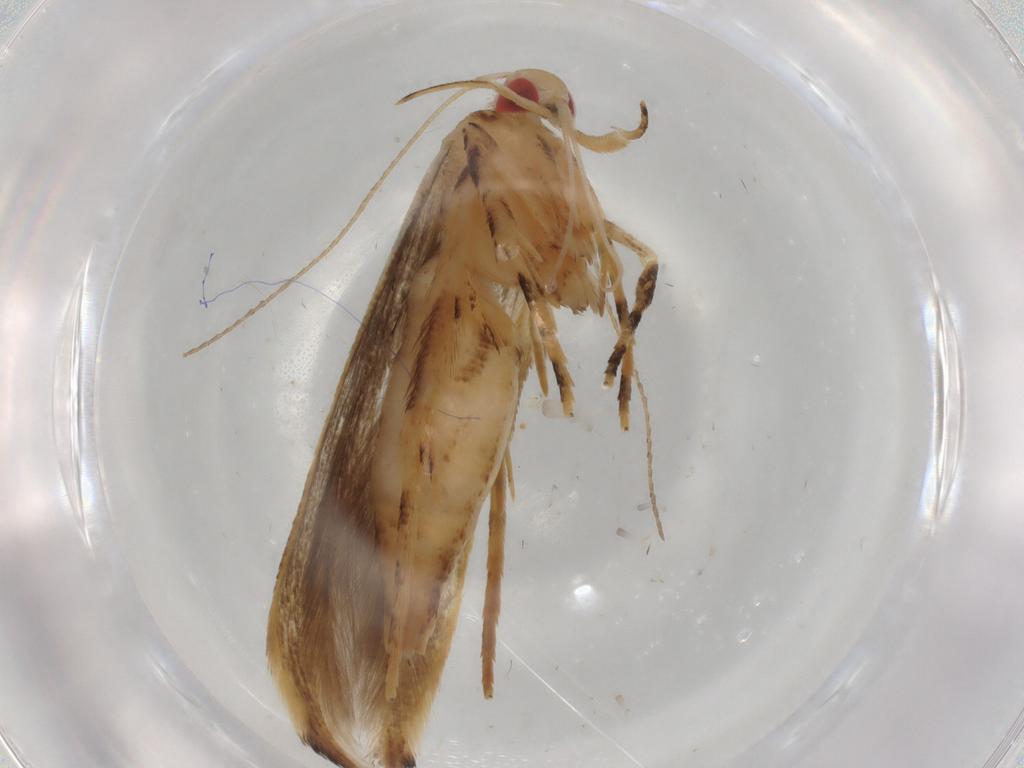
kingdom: Animalia
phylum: Arthropoda
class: Insecta
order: Lepidoptera
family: Cosmopterigidae
